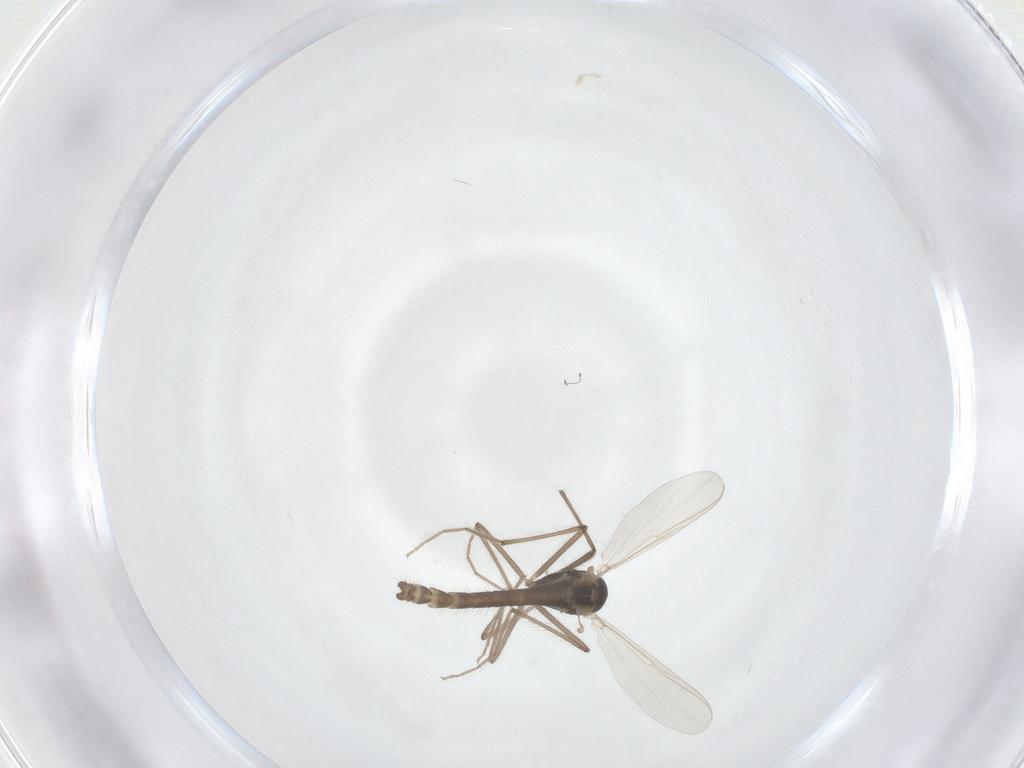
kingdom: Animalia
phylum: Arthropoda
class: Insecta
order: Diptera
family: Chironomidae
